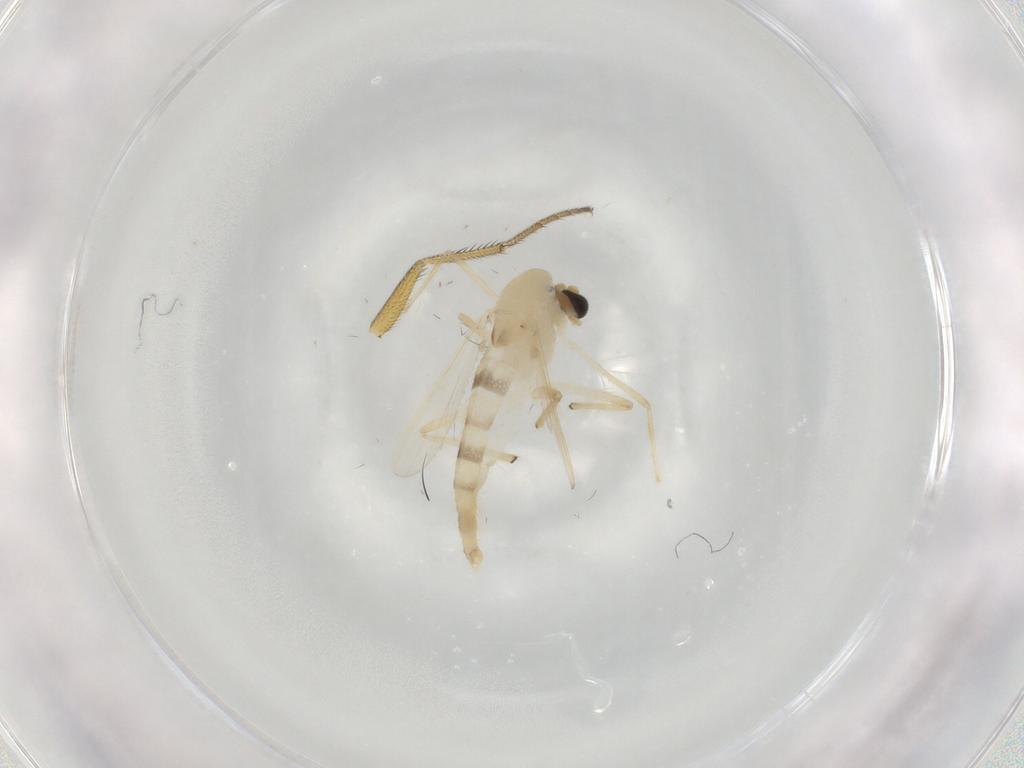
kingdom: Animalia
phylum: Arthropoda
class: Insecta
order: Diptera
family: Chironomidae
